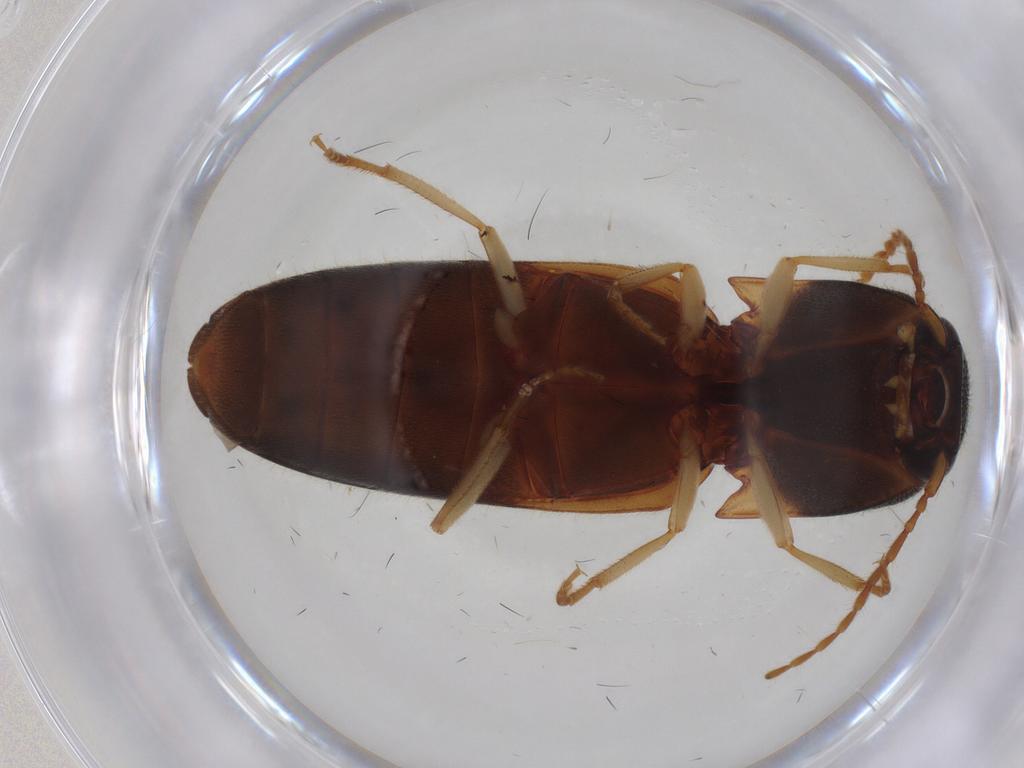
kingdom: Animalia
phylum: Arthropoda
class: Insecta
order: Coleoptera
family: Elateridae
